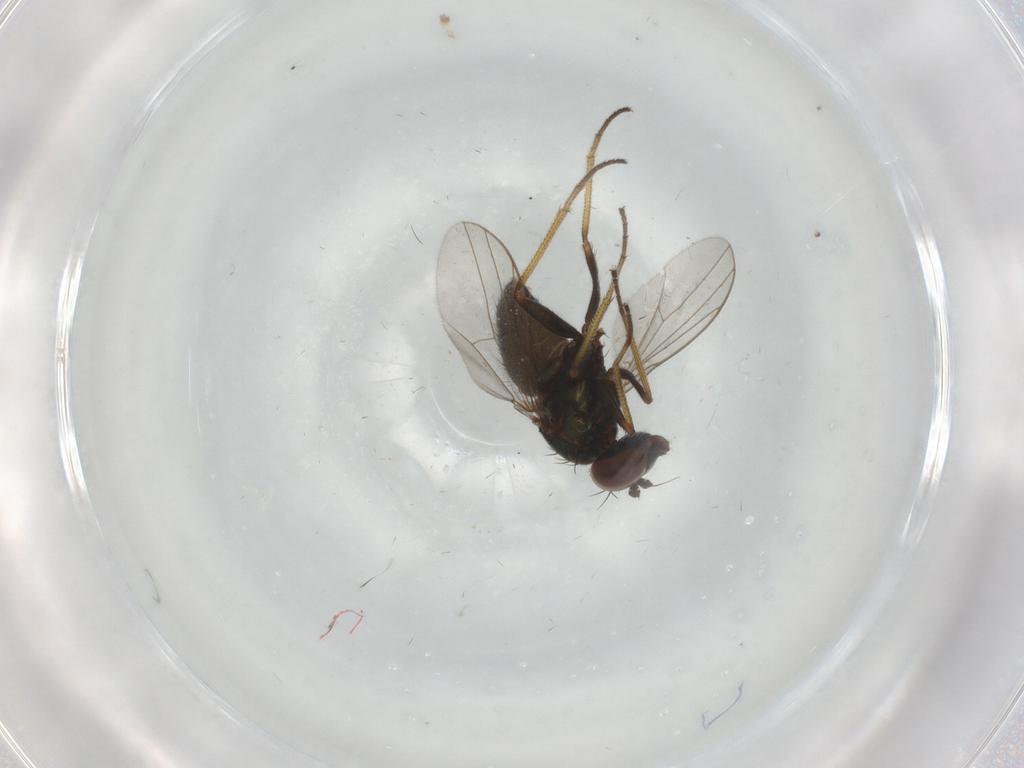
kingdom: Animalia
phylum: Arthropoda
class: Insecta
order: Diptera
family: Dolichopodidae
